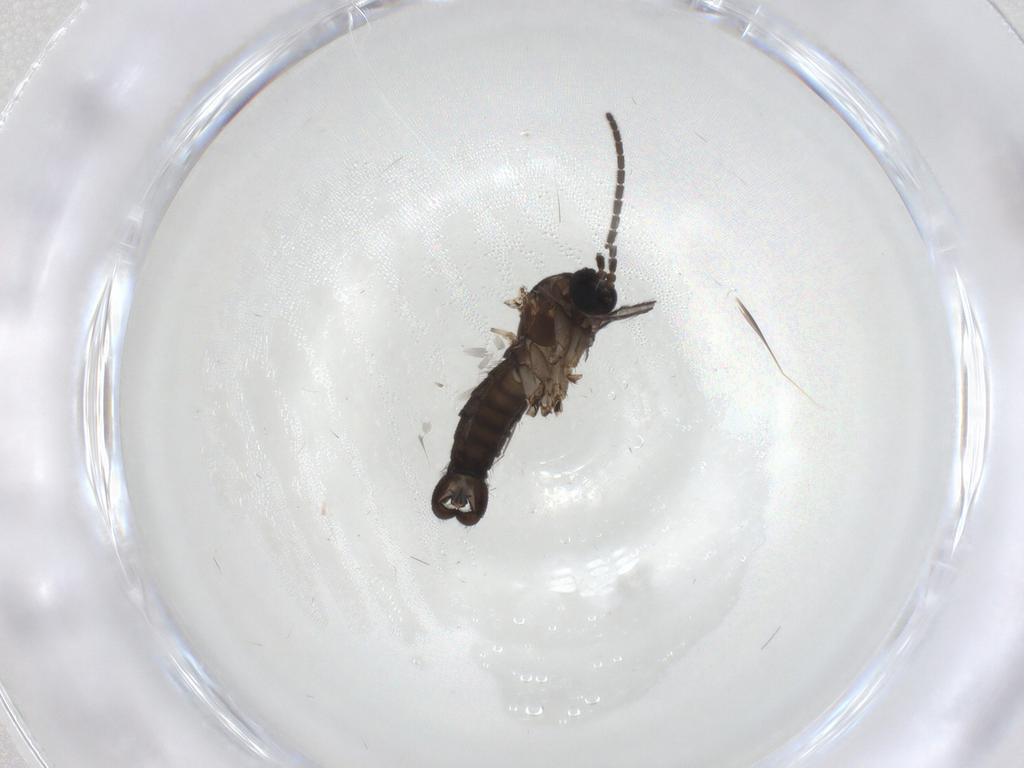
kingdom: Animalia
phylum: Arthropoda
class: Insecta
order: Diptera
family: Sciaridae
